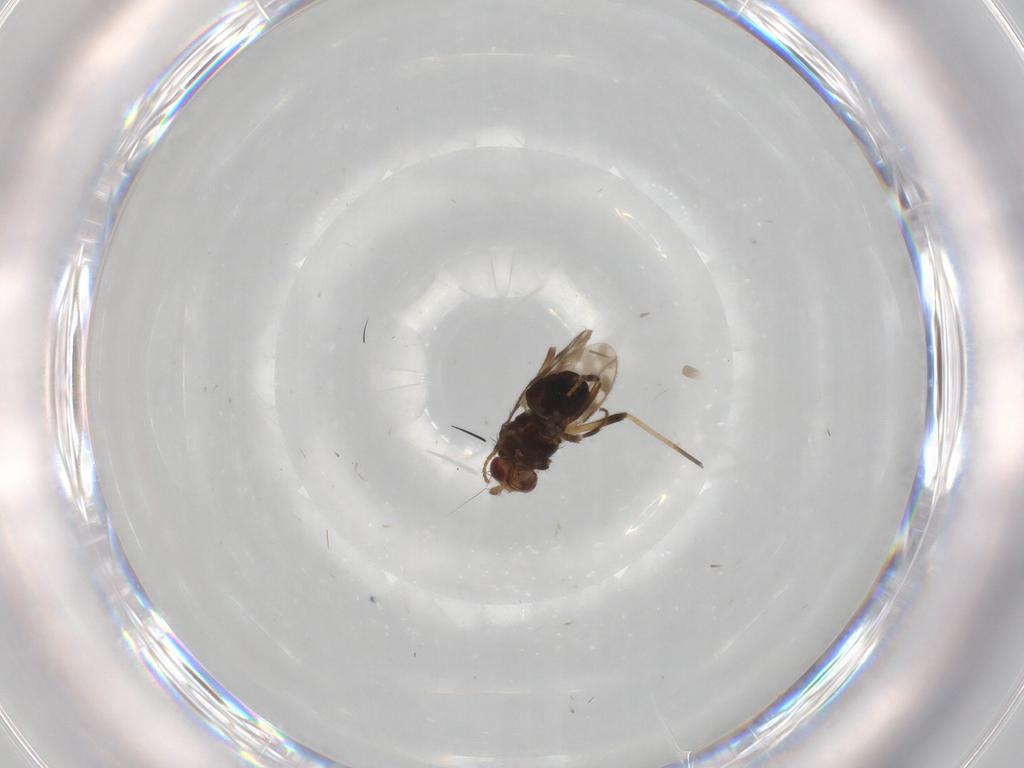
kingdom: Animalia
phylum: Arthropoda
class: Insecta
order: Diptera
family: Sphaeroceridae
